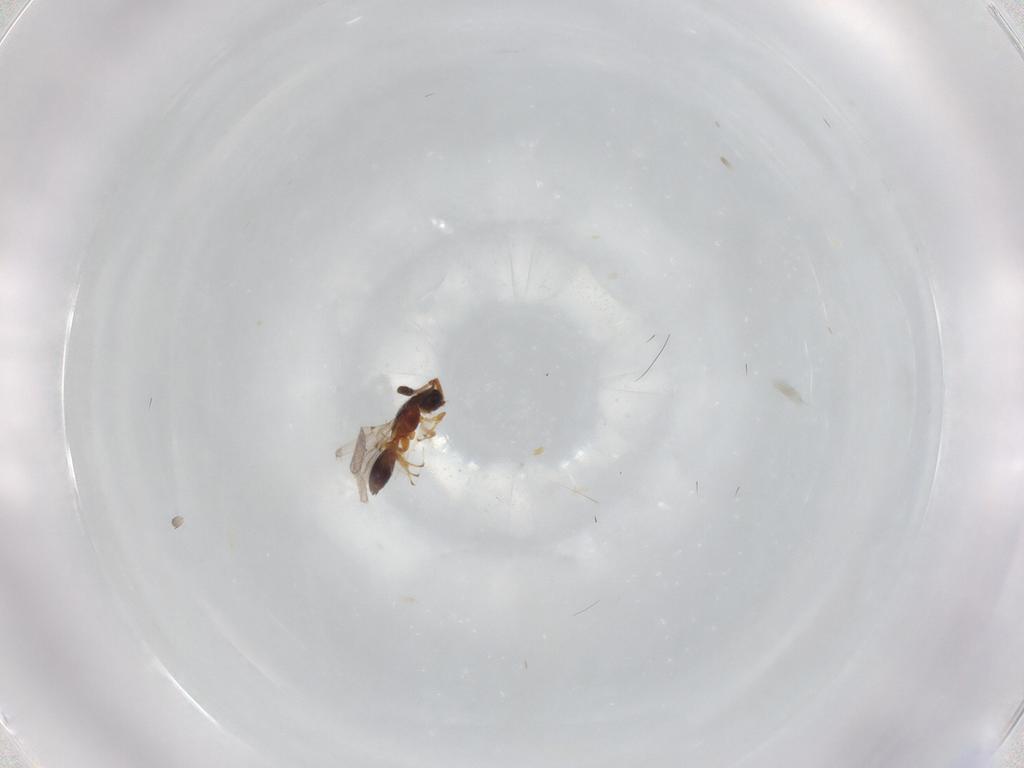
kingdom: Animalia
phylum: Arthropoda
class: Insecta
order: Hymenoptera
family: Diapriidae
